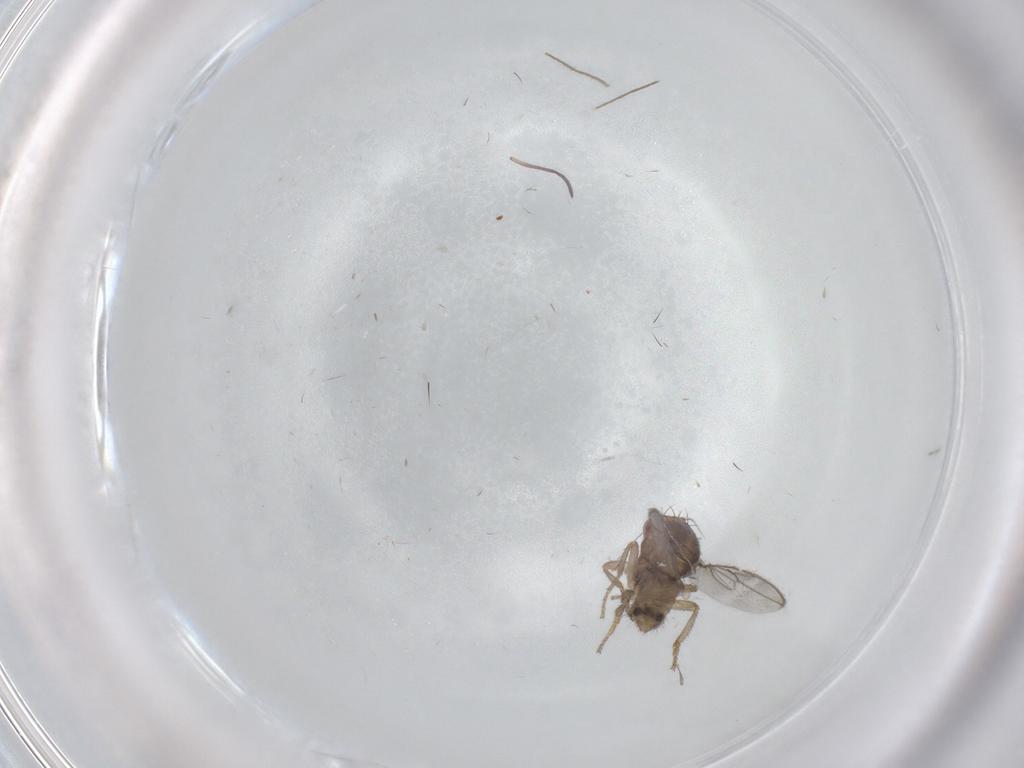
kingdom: Animalia
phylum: Arthropoda
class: Insecta
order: Diptera
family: Sphaeroceridae
